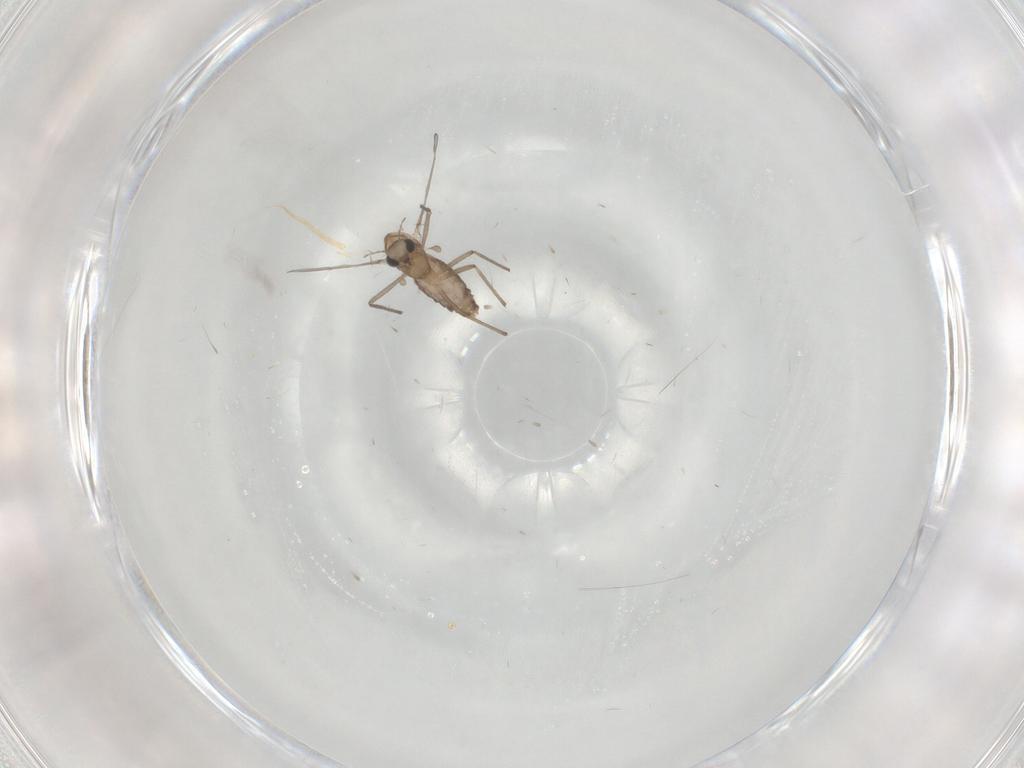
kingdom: Animalia
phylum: Arthropoda
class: Insecta
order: Diptera
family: Chironomidae
